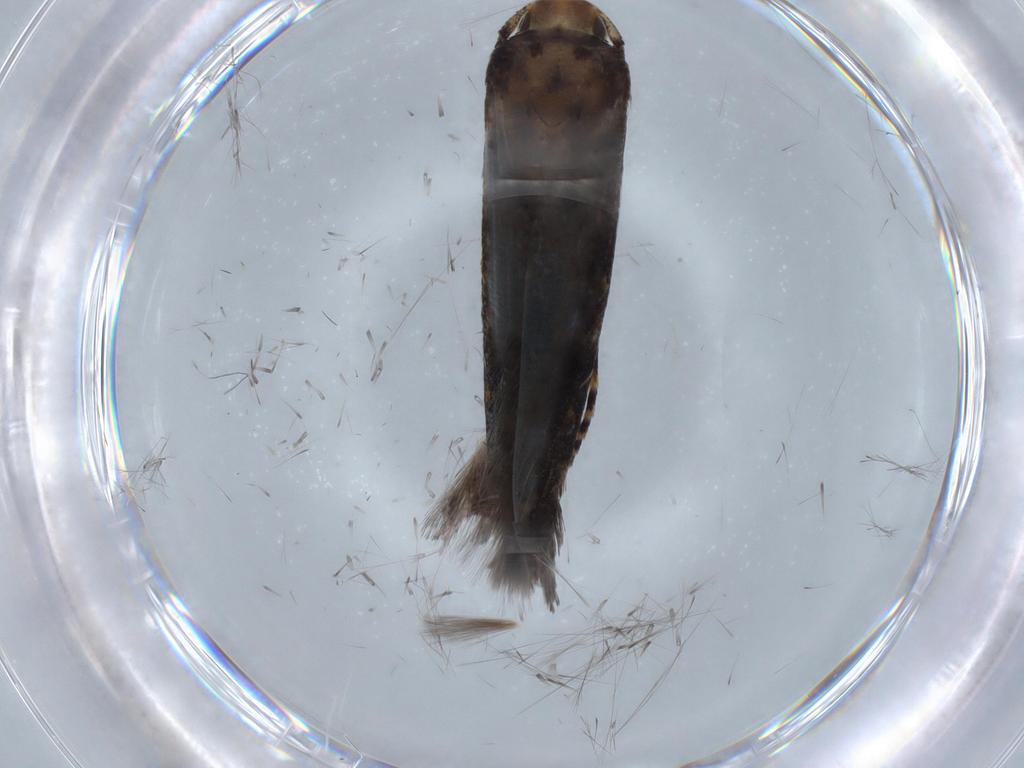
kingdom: Animalia
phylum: Arthropoda
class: Insecta
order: Lepidoptera
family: Gelechiidae
